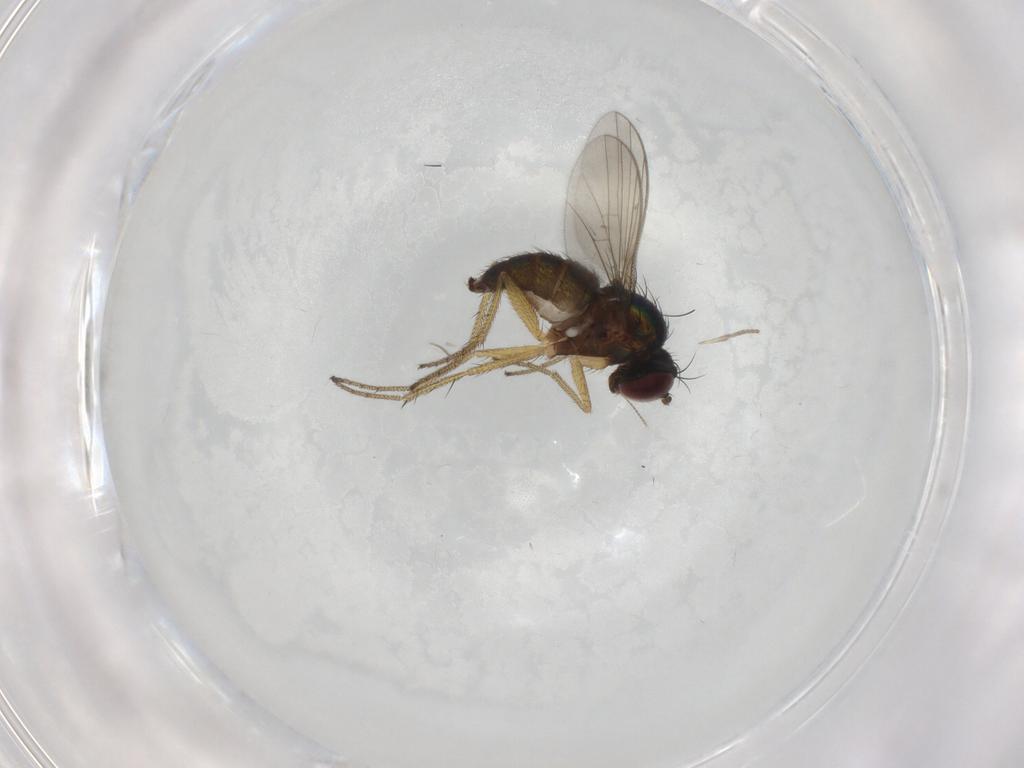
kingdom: Animalia
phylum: Arthropoda
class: Insecta
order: Diptera
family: Chironomidae
